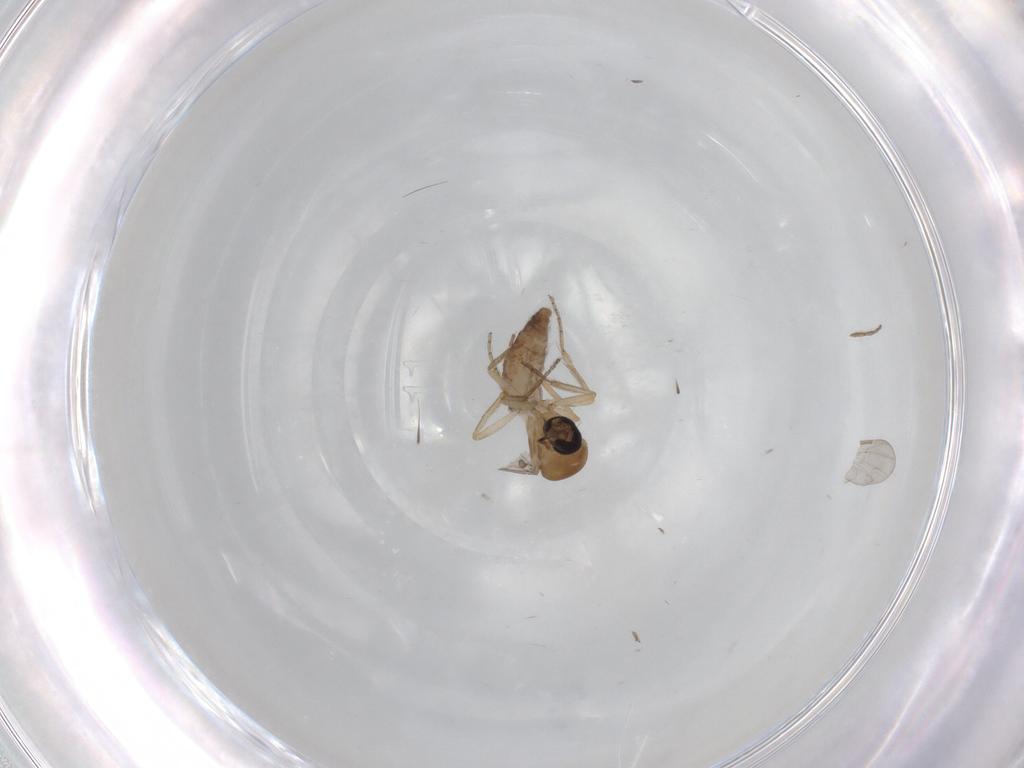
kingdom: Animalia
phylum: Arthropoda
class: Insecta
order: Diptera
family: Phoridae
